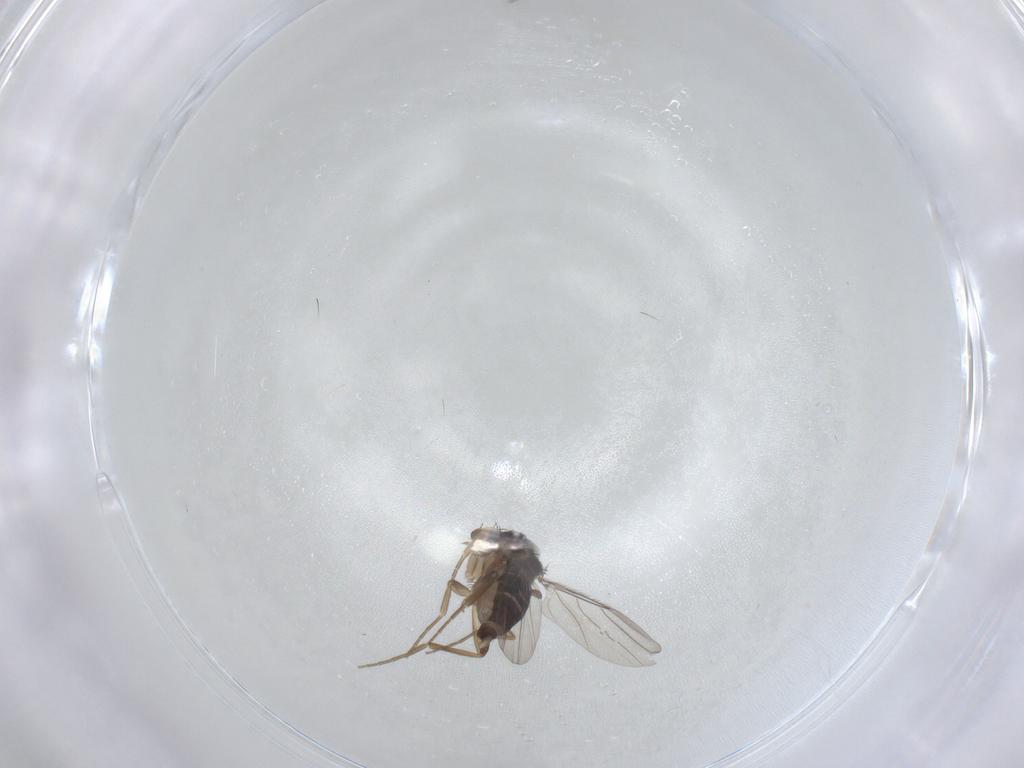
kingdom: Animalia
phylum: Arthropoda
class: Insecta
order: Diptera
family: Phoridae
